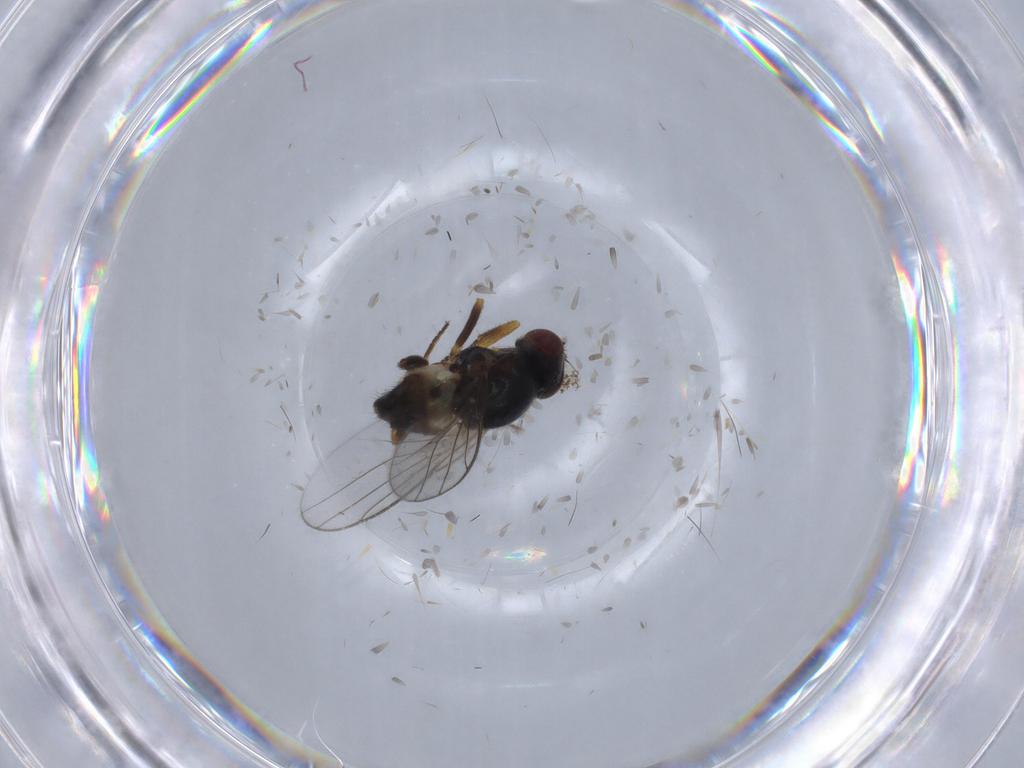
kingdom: Animalia
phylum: Arthropoda
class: Insecta
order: Diptera
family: Chloropidae
